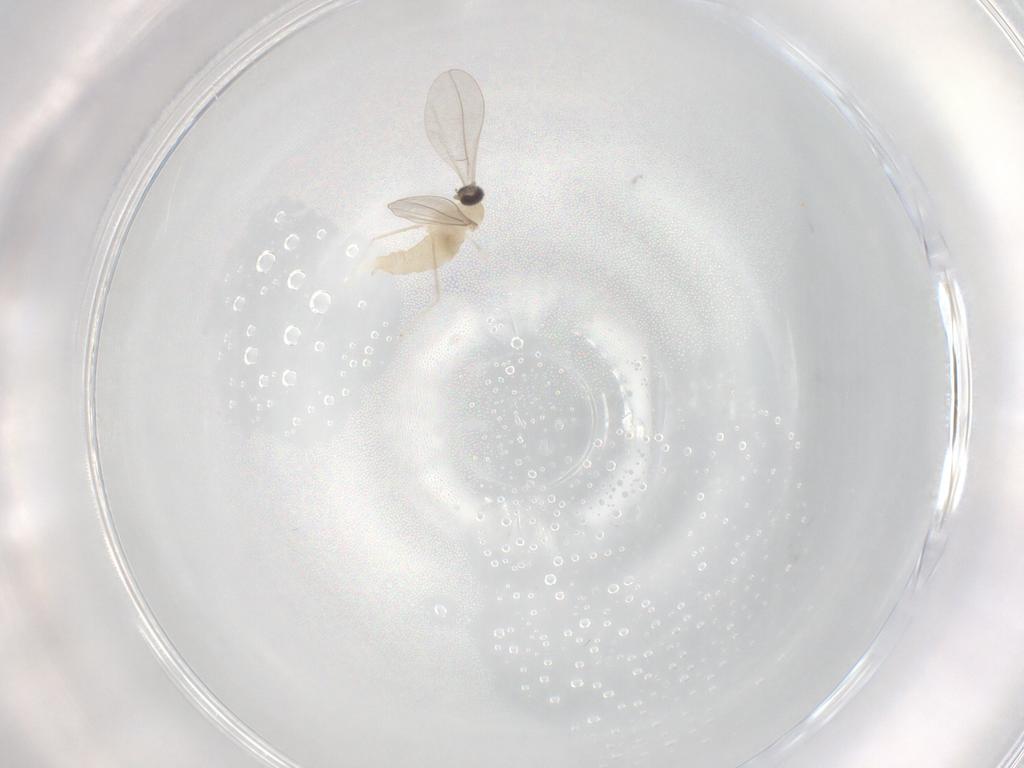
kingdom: Animalia
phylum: Arthropoda
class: Insecta
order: Diptera
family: Cecidomyiidae
